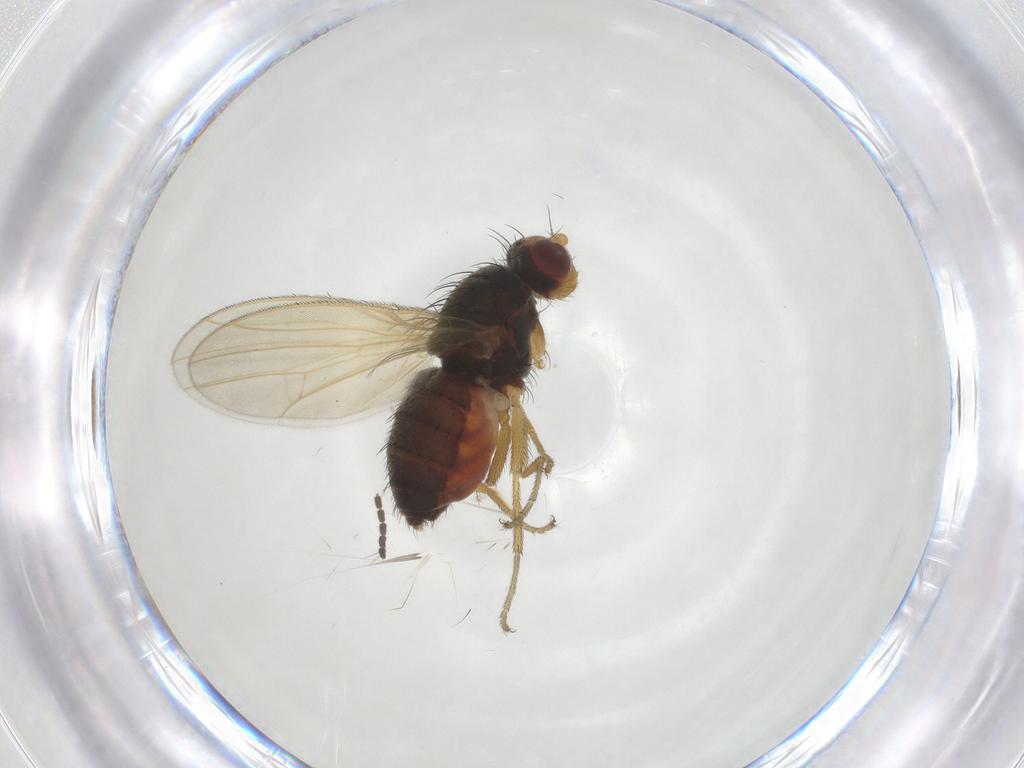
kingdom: Animalia
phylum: Arthropoda
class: Insecta
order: Diptera
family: Heleomyzidae
